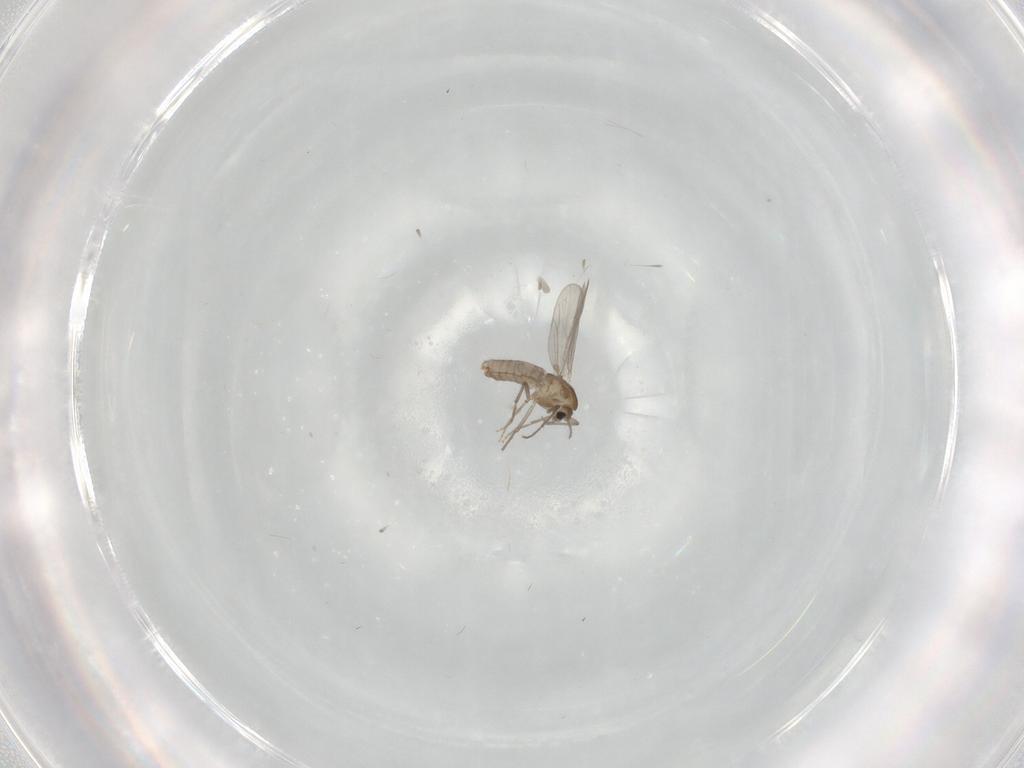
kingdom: Animalia
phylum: Arthropoda
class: Insecta
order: Diptera
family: Chironomidae
